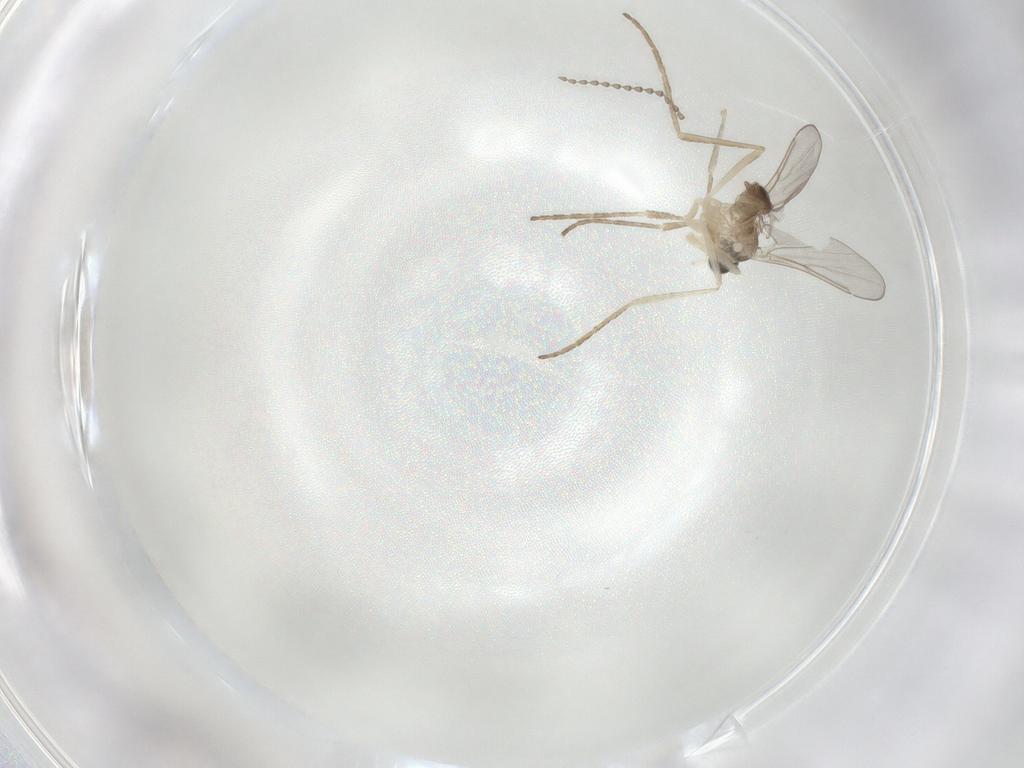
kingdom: Animalia
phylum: Arthropoda
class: Insecta
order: Diptera
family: Cecidomyiidae
